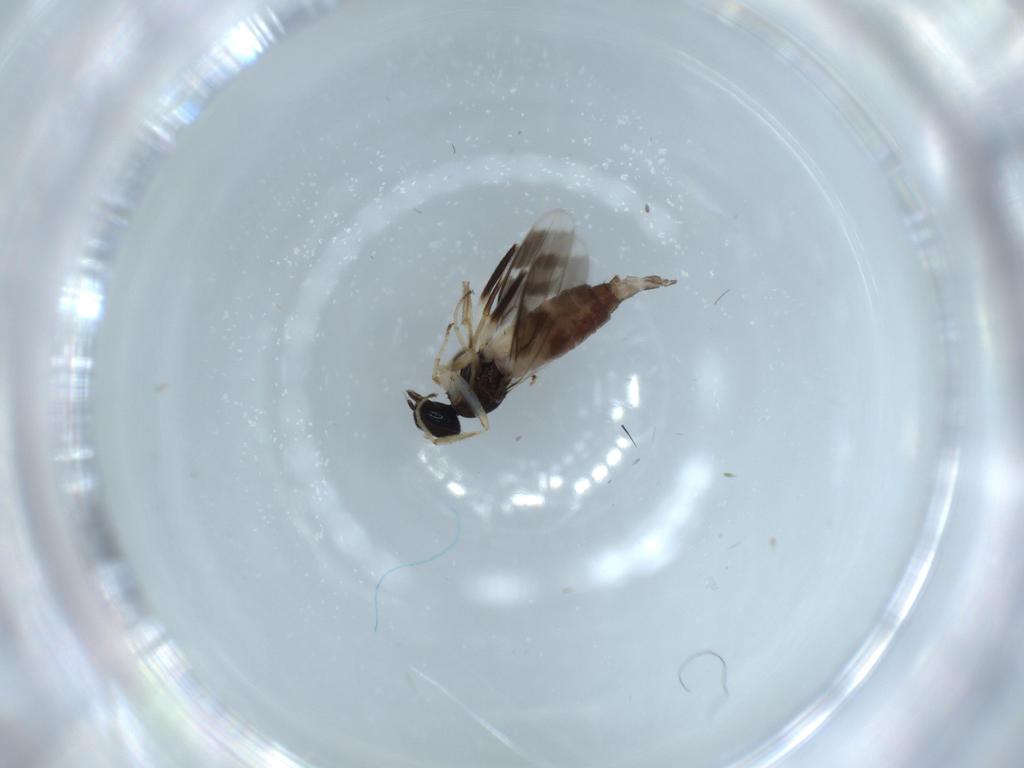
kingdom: Animalia
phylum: Arthropoda
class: Insecta
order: Diptera
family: Hybotidae
